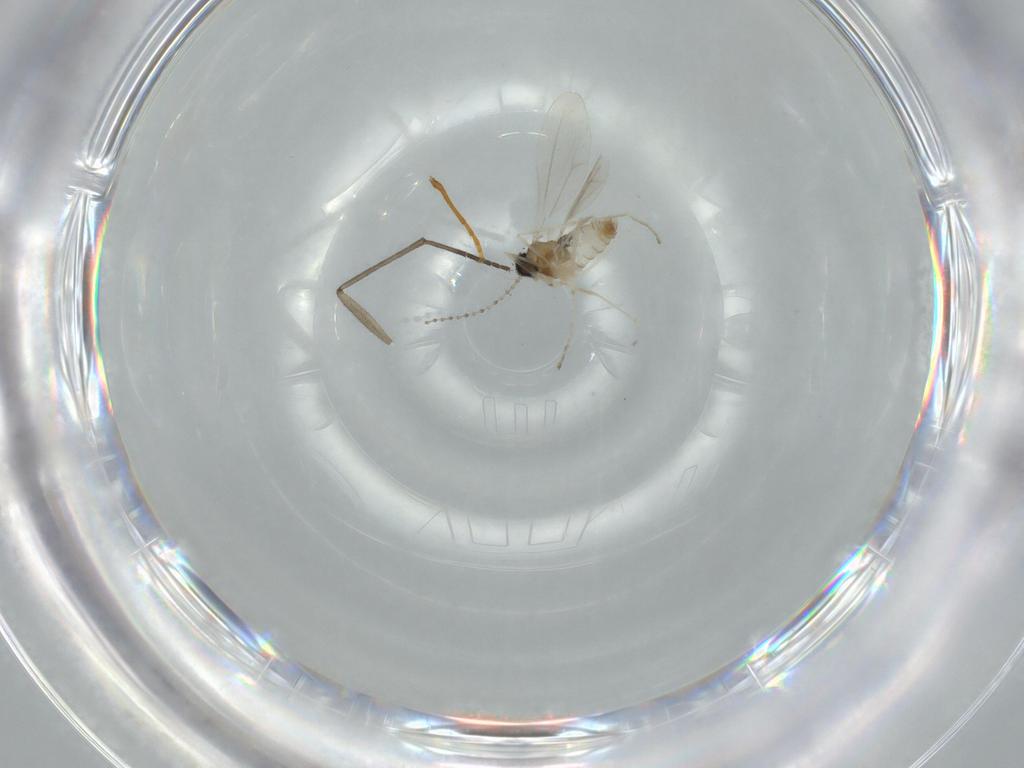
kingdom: Animalia
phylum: Arthropoda
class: Insecta
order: Diptera
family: Cecidomyiidae
